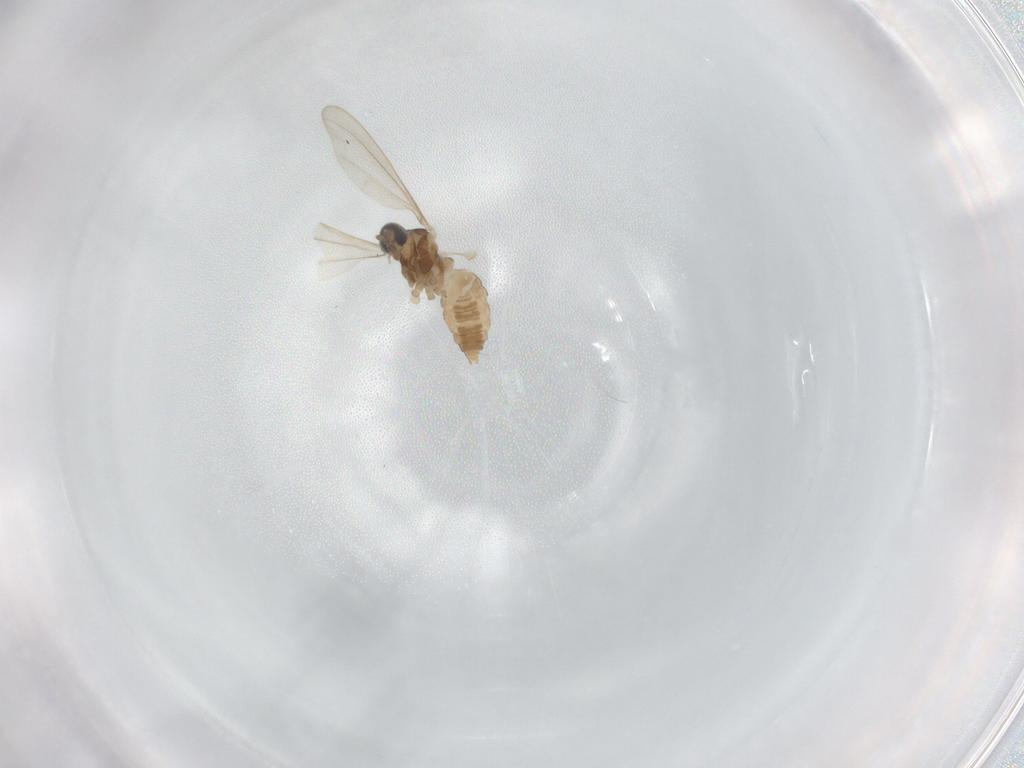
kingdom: Animalia
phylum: Arthropoda
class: Insecta
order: Diptera
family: Cecidomyiidae
